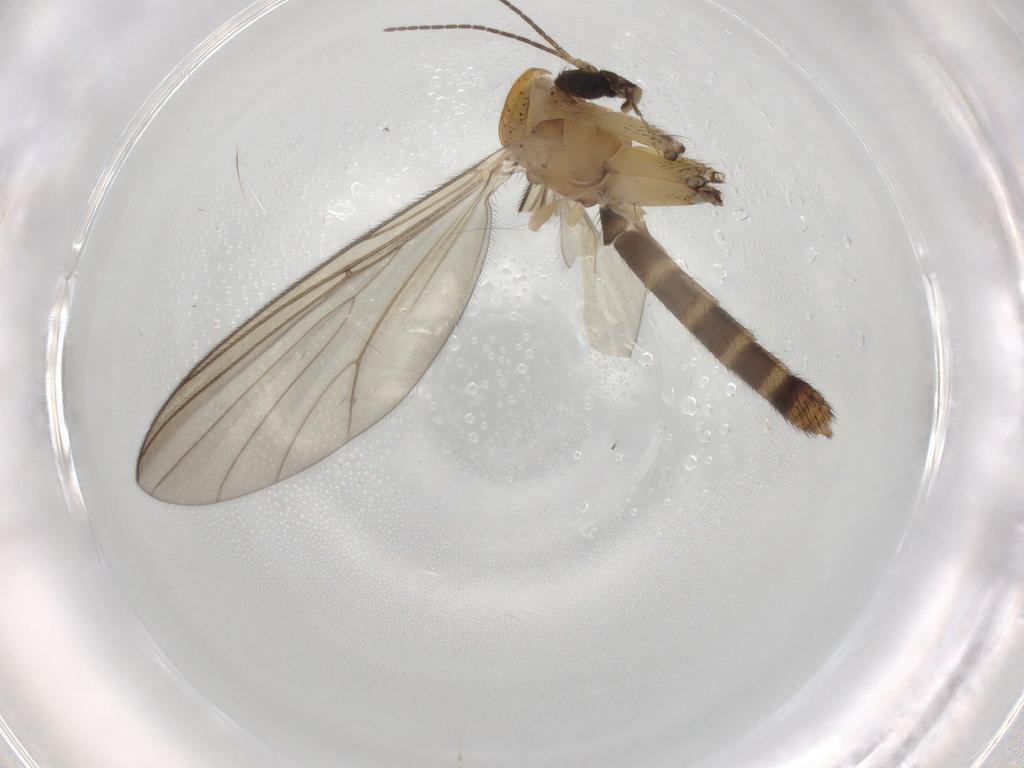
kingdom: Animalia
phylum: Arthropoda
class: Insecta
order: Diptera
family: Mycetophilidae
